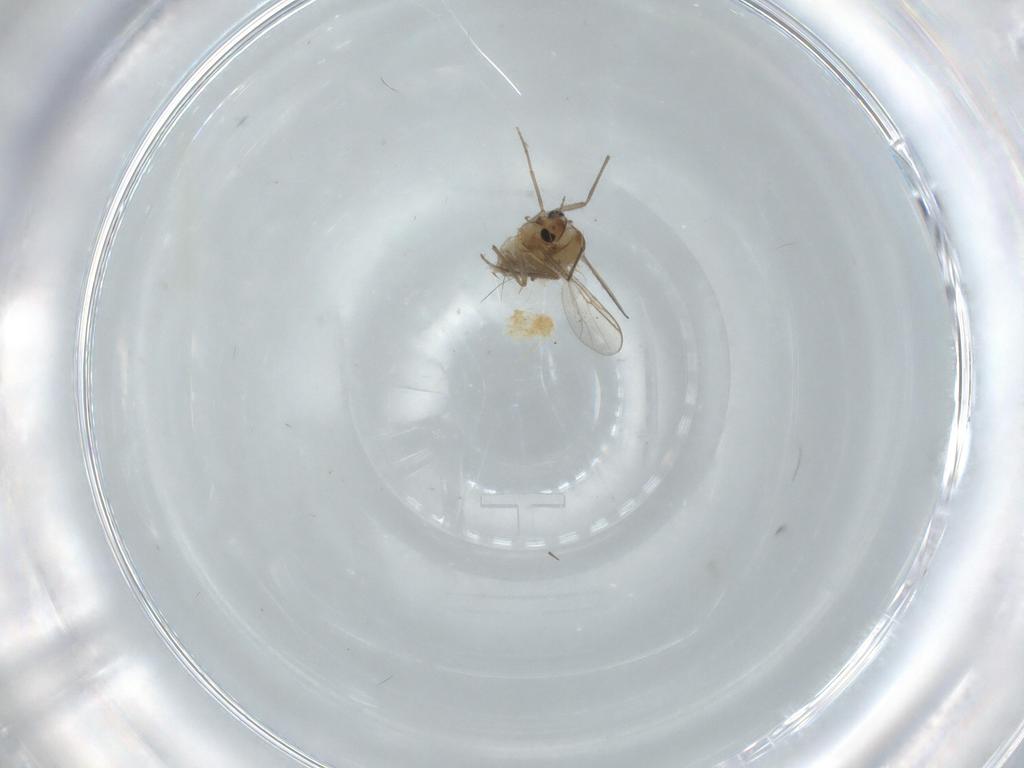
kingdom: Animalia
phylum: Arthropoda
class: Insecta
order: Diptera
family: Chironomidae
